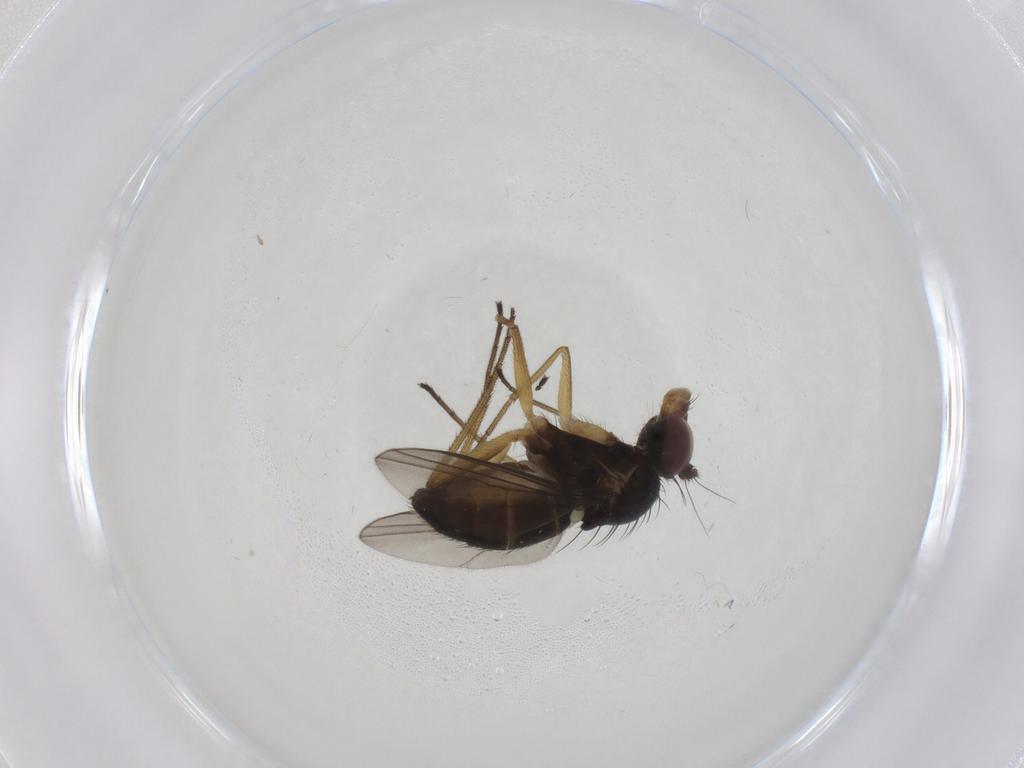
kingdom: Animalia
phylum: Arthropoda
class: Insecta
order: Diptera
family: Dolichopodidae
